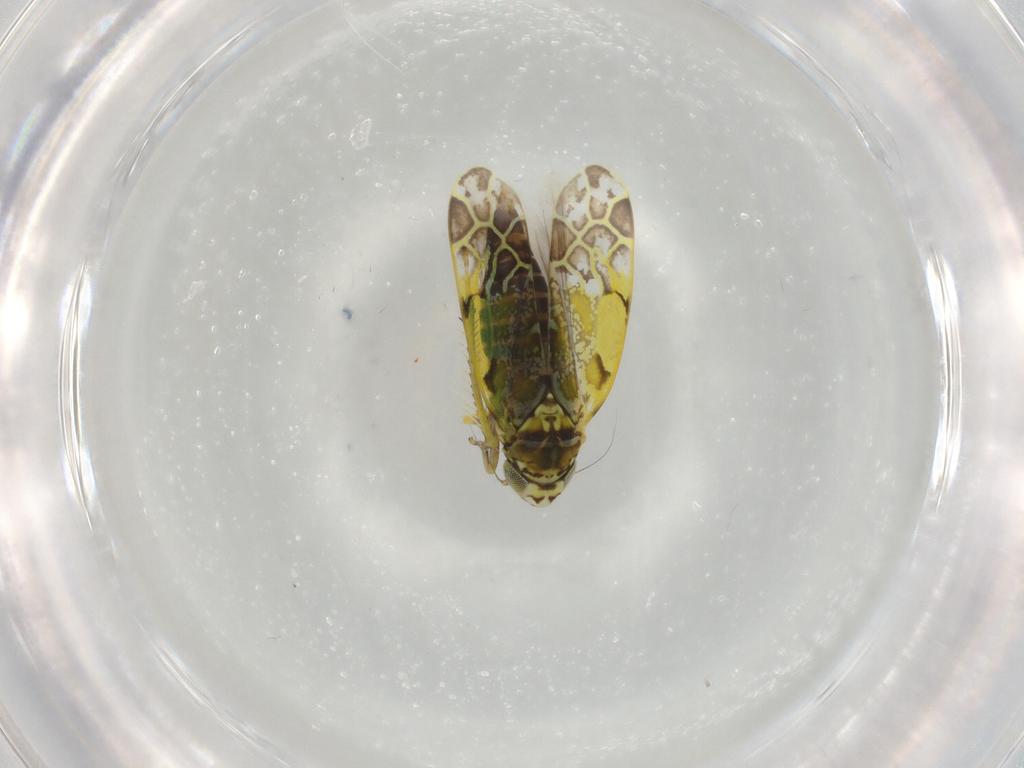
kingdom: Animalia
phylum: Arthropoda
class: Insecta
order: Hemiptera
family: Cicadellidae
